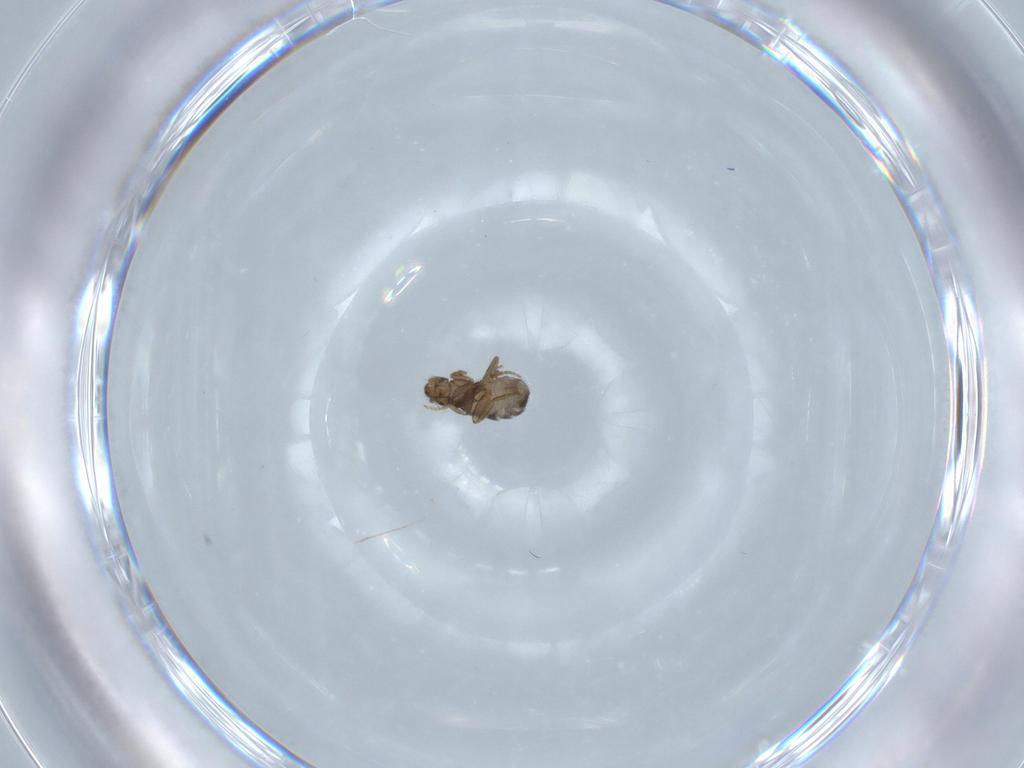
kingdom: Animalia
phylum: Arthropoda
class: Insecta
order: Diptera
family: Phoridae
